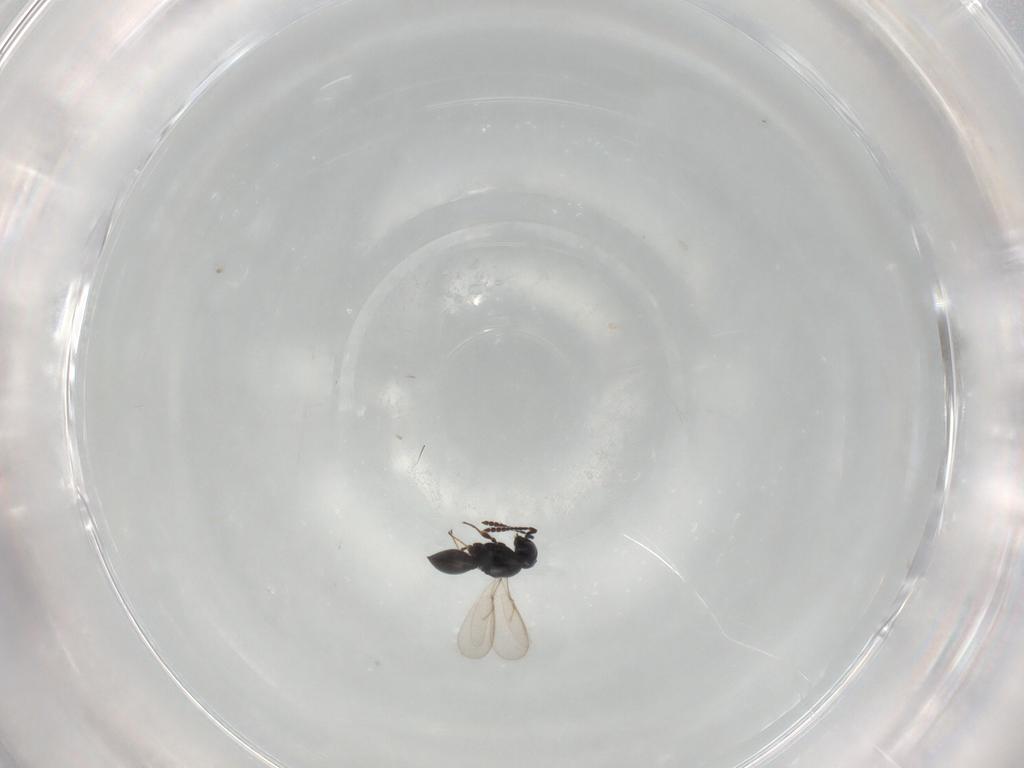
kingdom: Animalia
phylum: Arthropoda
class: Insecta
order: Hymenoptera
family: Scelionidae
